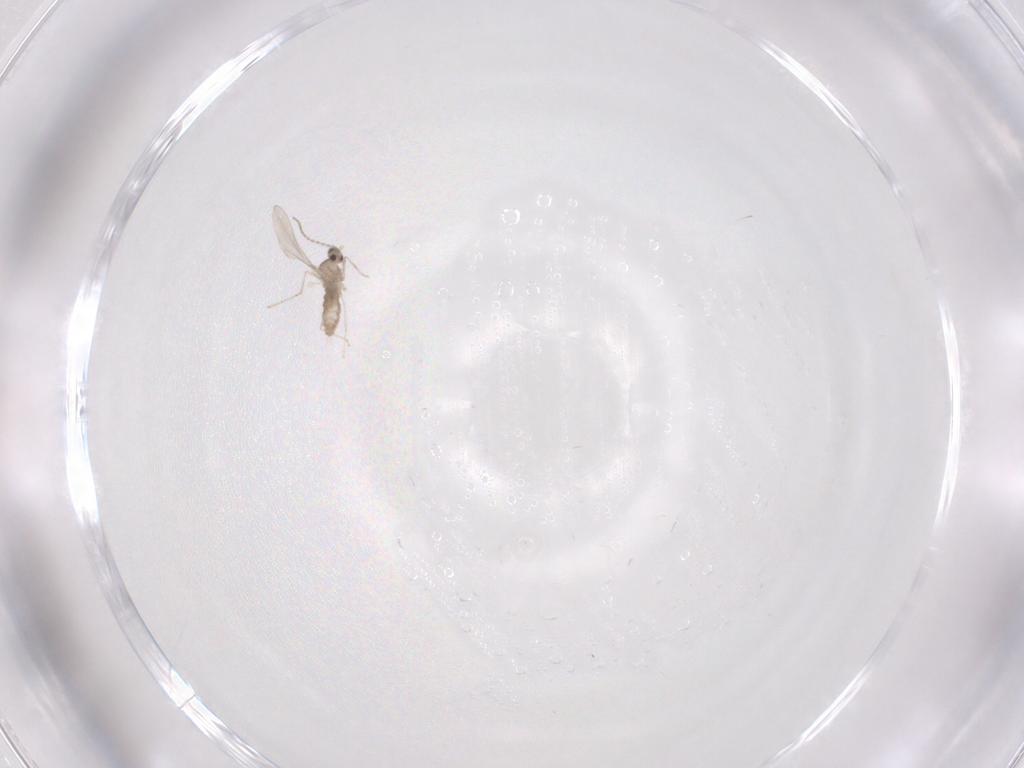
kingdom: Animalia
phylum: Arthropoda
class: Insecta
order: Diptera
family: Cecidomyiidae
